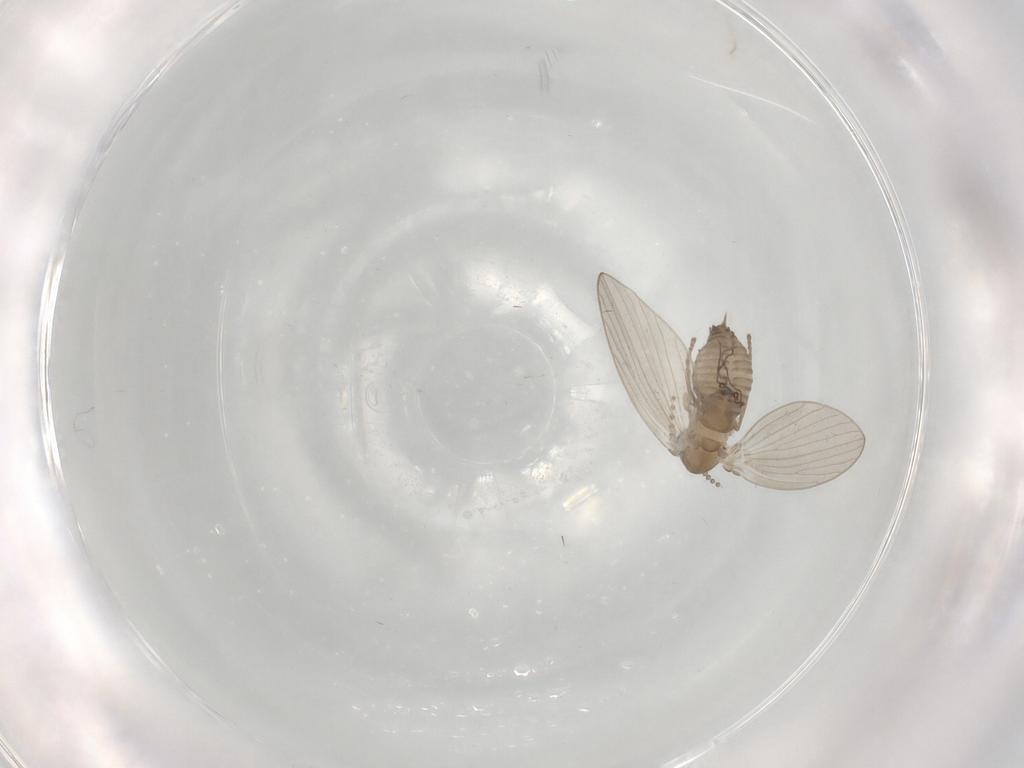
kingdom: Animalia
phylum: Arthropoda
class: Insecta
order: Diptera
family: Psychodidae
